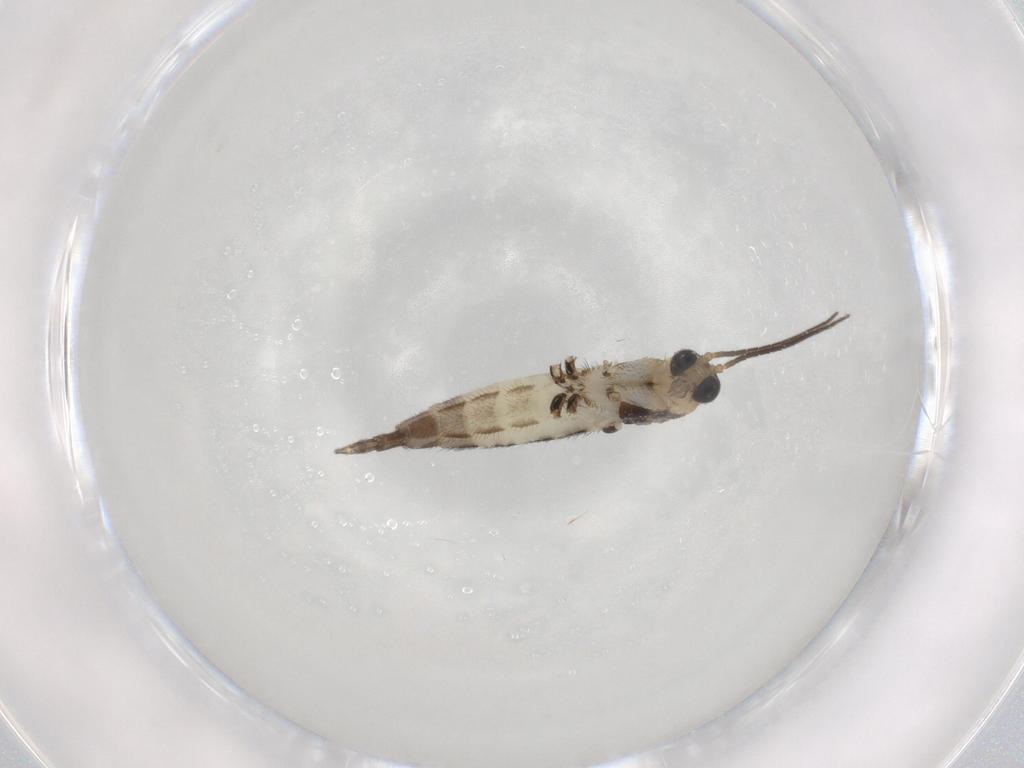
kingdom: Animalia
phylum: Arthropoda
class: Insecta
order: Diptera
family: Sciaridae
